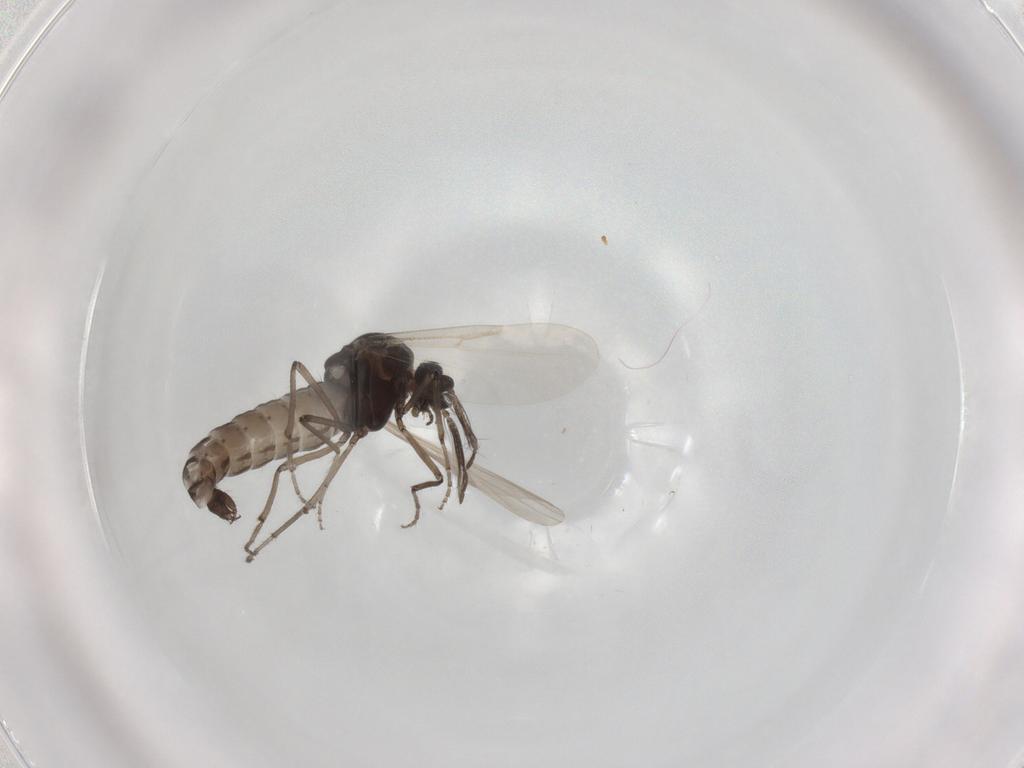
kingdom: Animalia
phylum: Arthropoda
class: Insecta
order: Diptera
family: Ceratopogonidae
